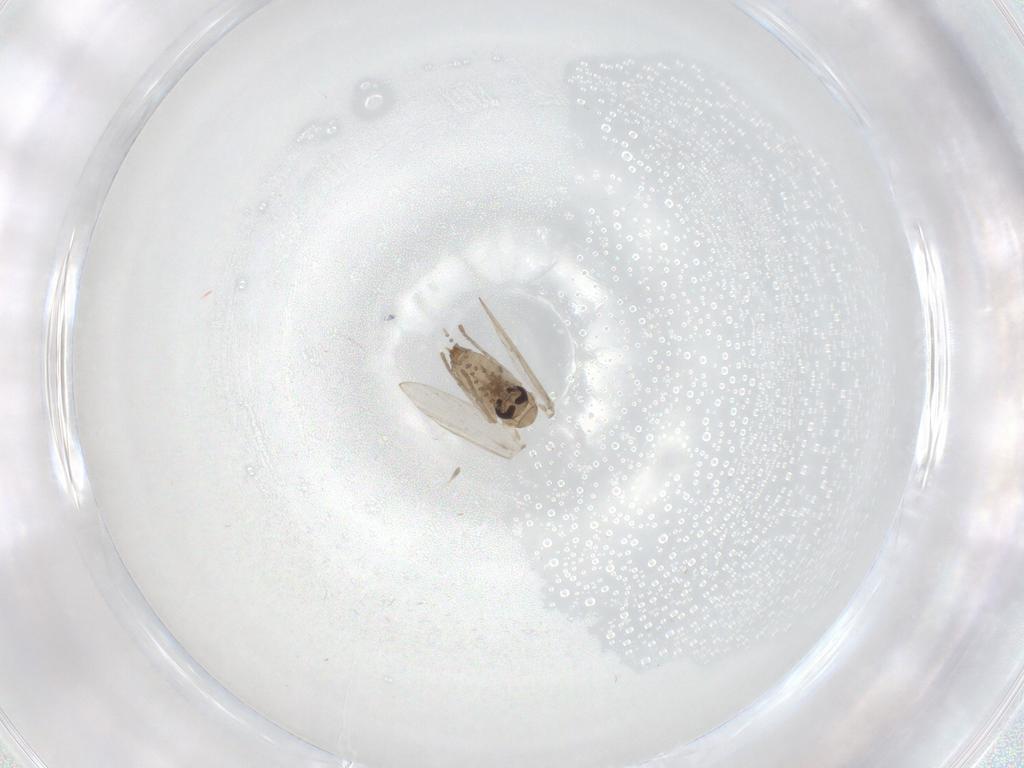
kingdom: Animalia
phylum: Arthropoda
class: Insecta
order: Diptera
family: Psychodidae
